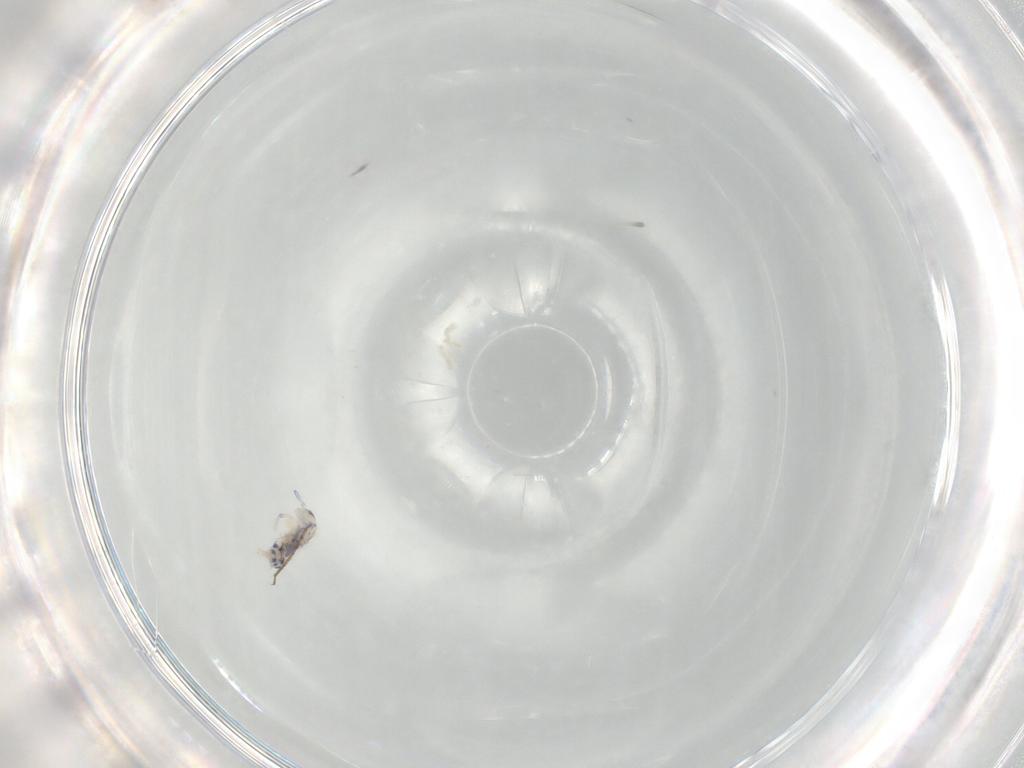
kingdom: Animalia
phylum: Arthropoda
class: Collembola
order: Entomobryomorpha
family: Entomobryidae
